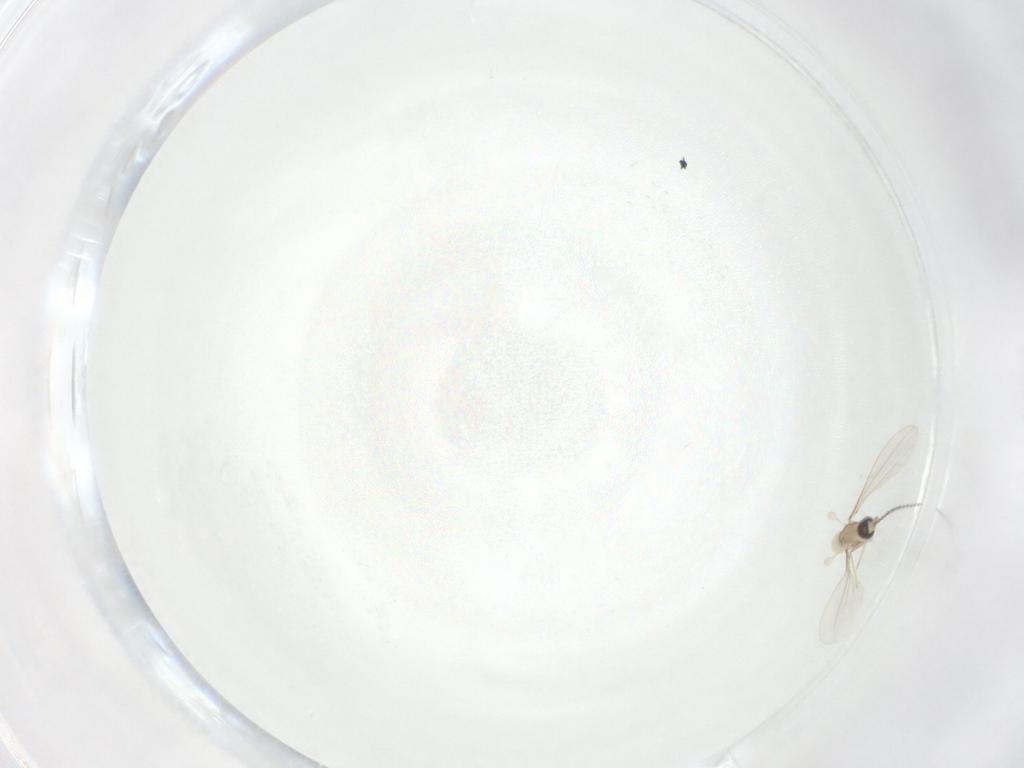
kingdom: Animalia
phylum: Arthropoda
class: Insecta
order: Diptera
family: Cecidomyiidae
